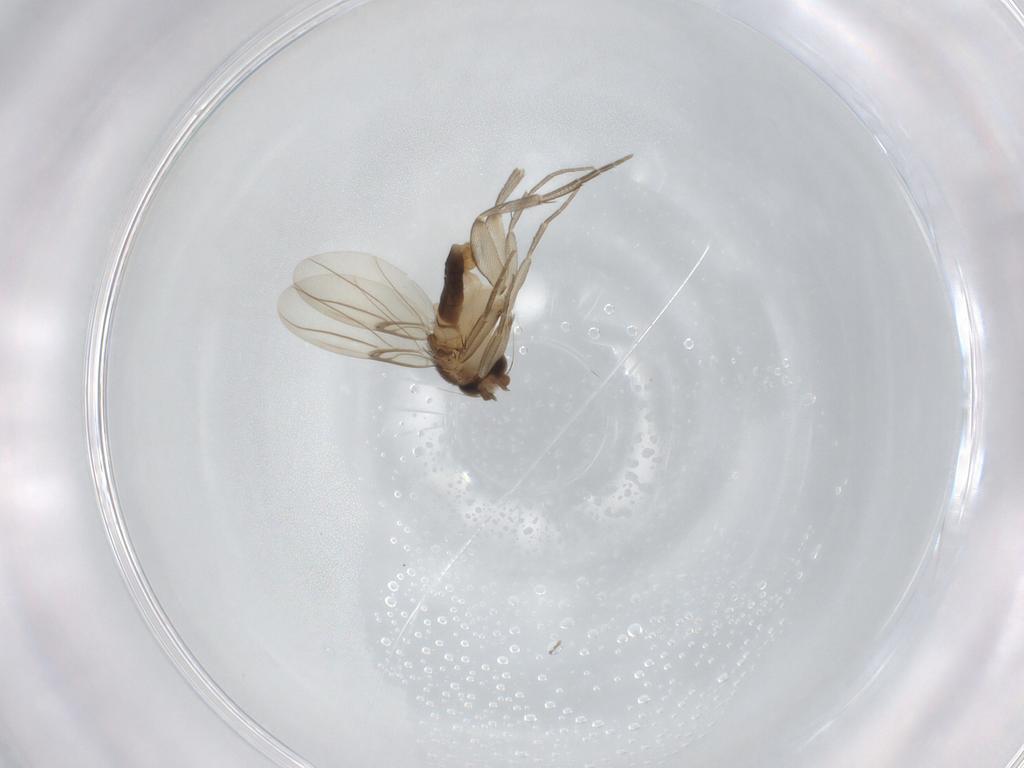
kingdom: Animalia
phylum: Arthropoda
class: Insecta
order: Diptera
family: Phoridae
